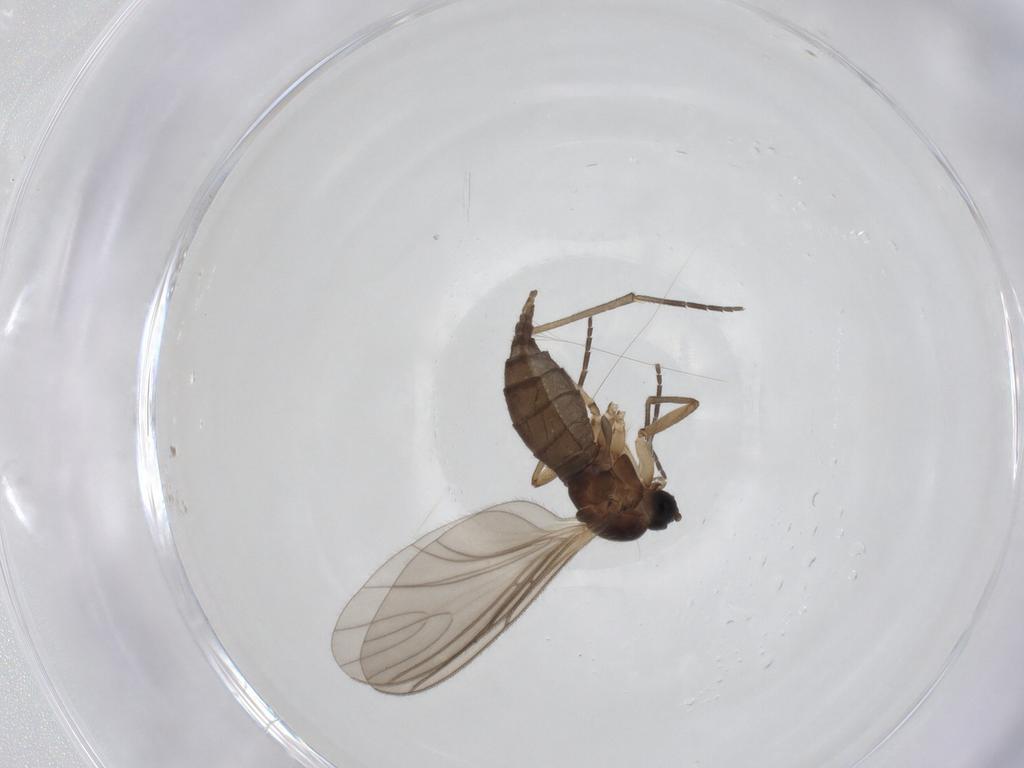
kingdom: Animalia
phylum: Arthropoda
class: Insecta
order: Diptera
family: Sciaridae
